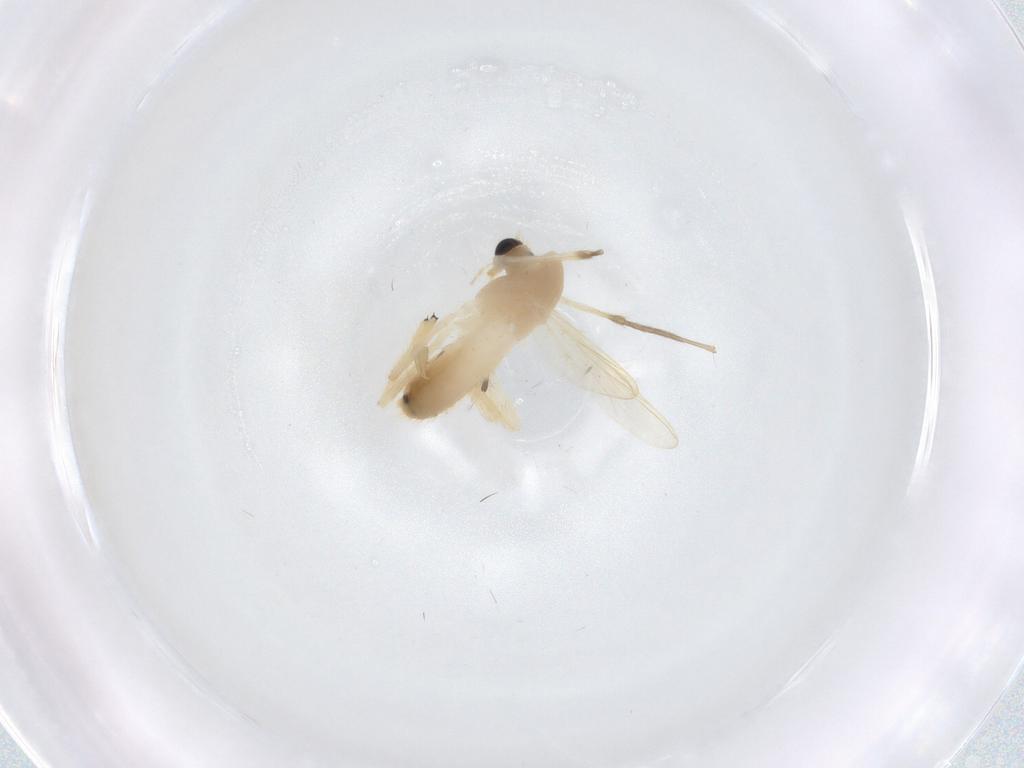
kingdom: Animalia
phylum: Arthropoda
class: Insecta
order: Diptera
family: Chironomidae
